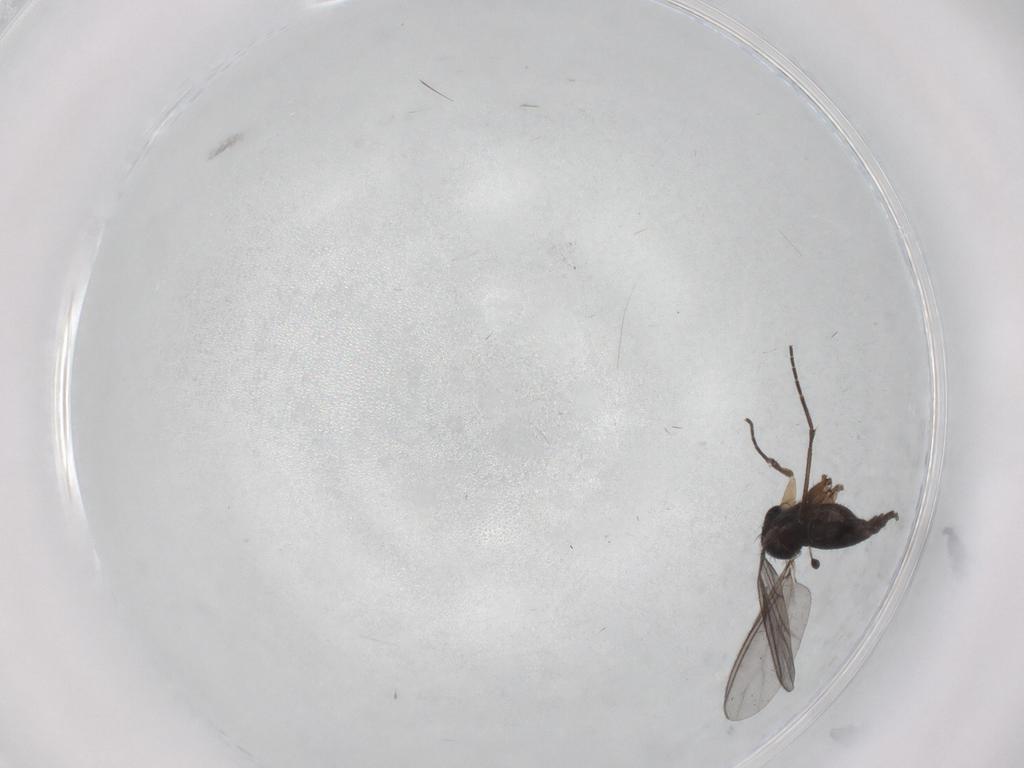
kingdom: Animalia
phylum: Arthropoda
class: Insecta
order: Diptera
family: Sciaridae
